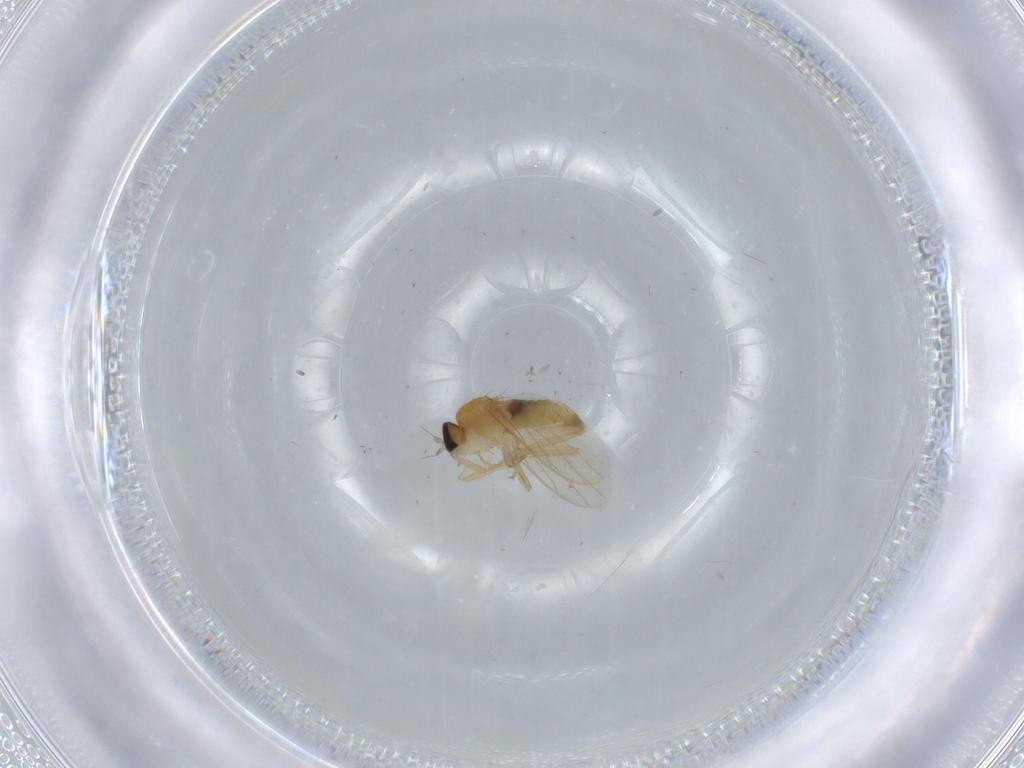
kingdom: Animalia
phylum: Arthropoda
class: Insecta
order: Diptera
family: Hybotidae
